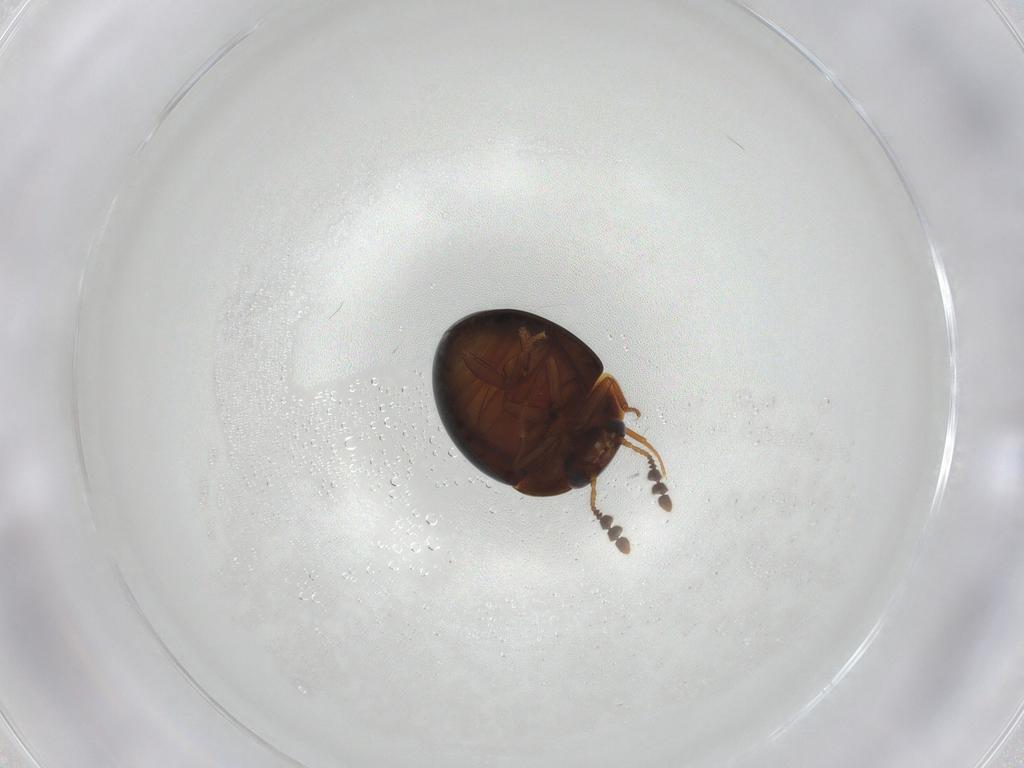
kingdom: Animalia
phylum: Arthropoda
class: Insecta
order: Coleoptera
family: Leiodidae
